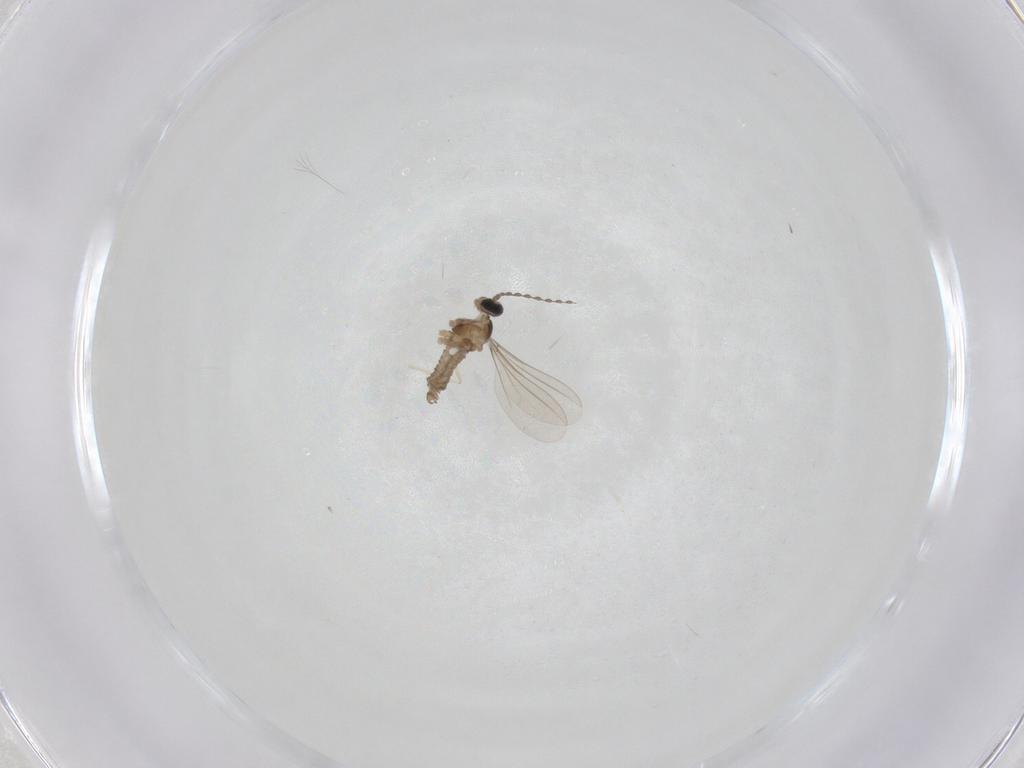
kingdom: Animalia
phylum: Arthropoda
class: Insecta
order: Diptera
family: Cecidomyiidae
